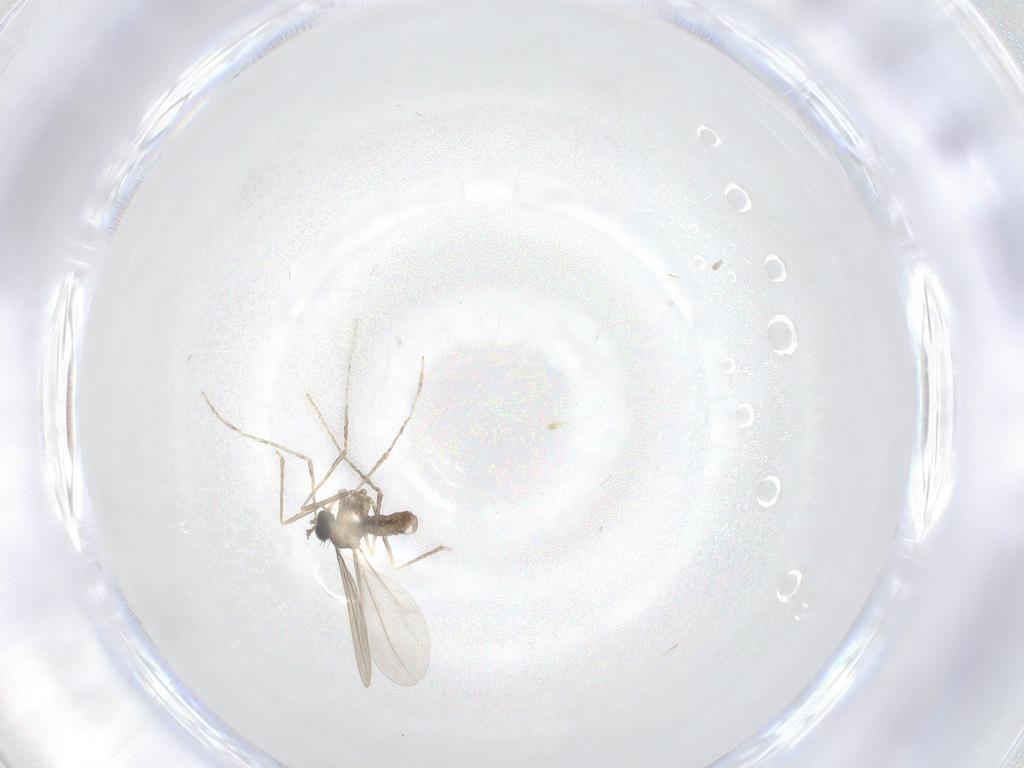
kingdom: Animalia
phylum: Arthropoda
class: Insecta
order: Diptera
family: Cecidomyiidae
